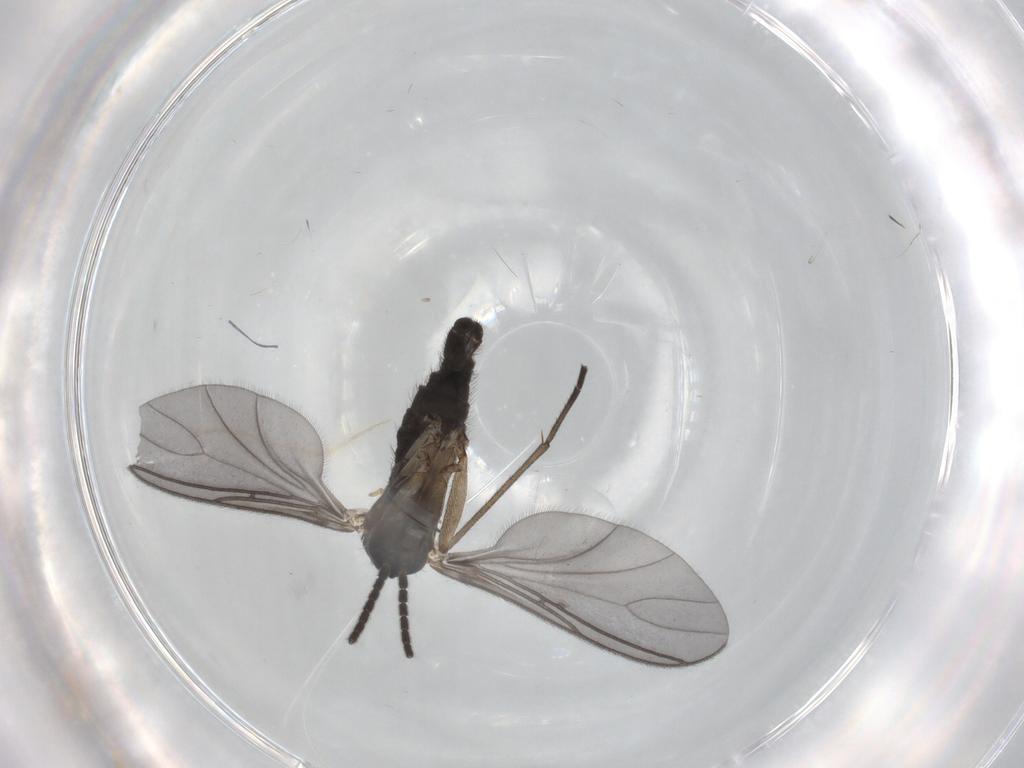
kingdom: Animalia
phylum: Arthropoda
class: Insecta
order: Diptera
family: Sciaridae
